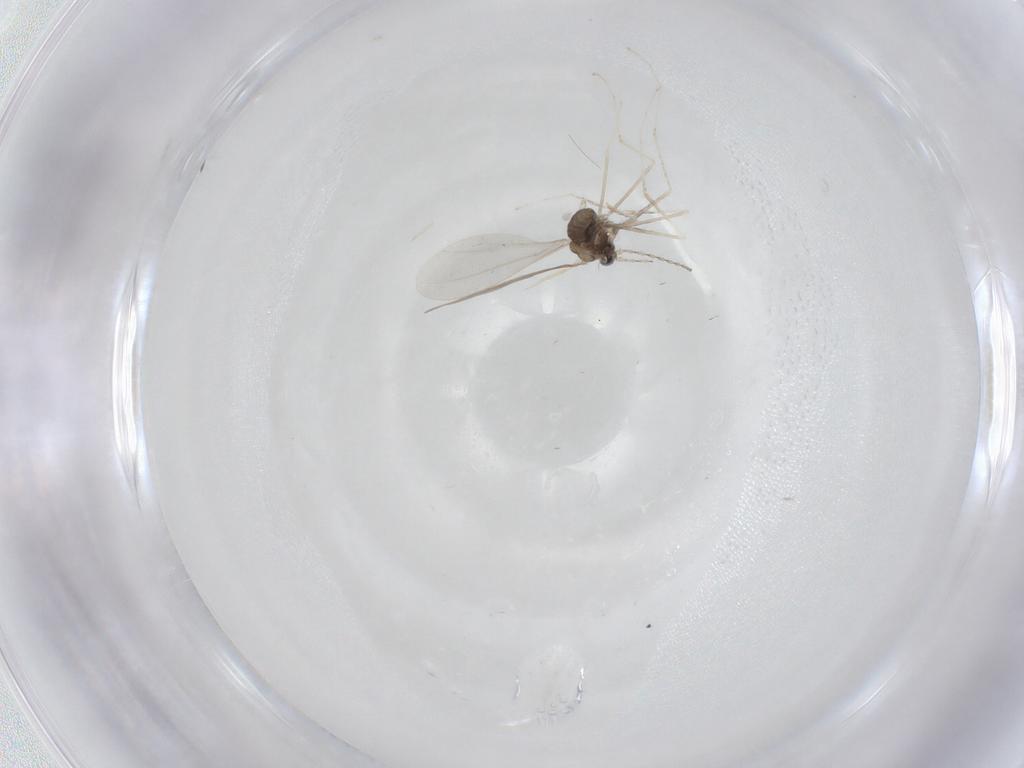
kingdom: Animalia
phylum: Arthropoda
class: Insecta
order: Diptera
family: Cecidomyiidae
